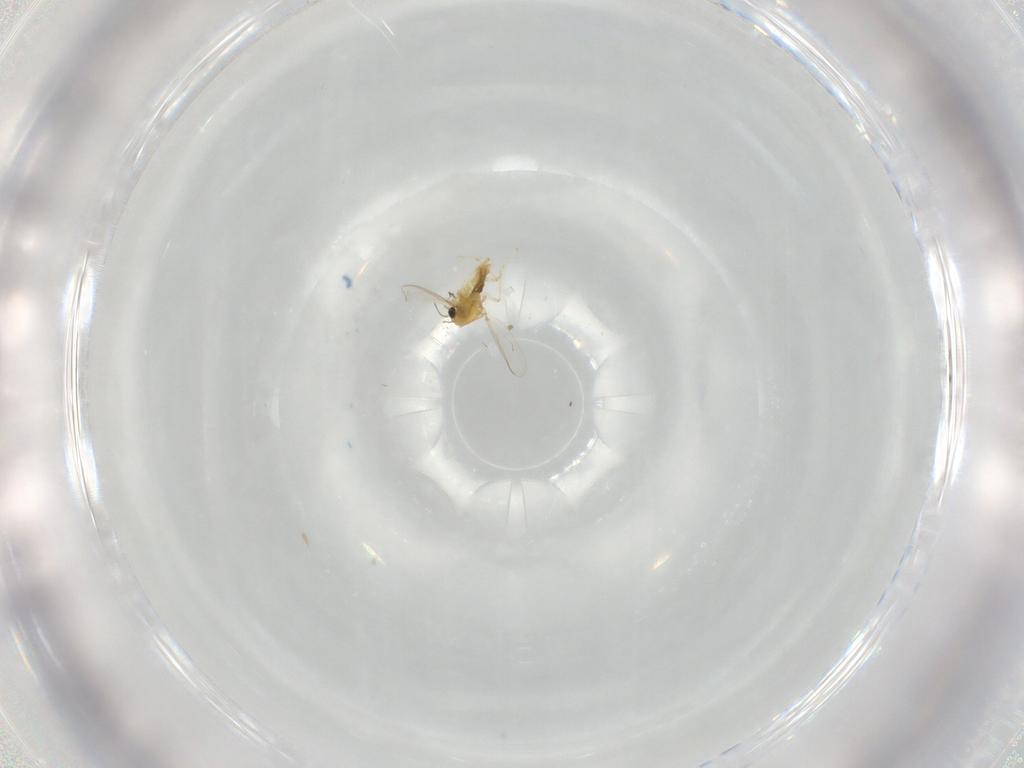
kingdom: Animalia
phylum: Arthropoda
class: Insecta
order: Diptera
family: Chironomidae
